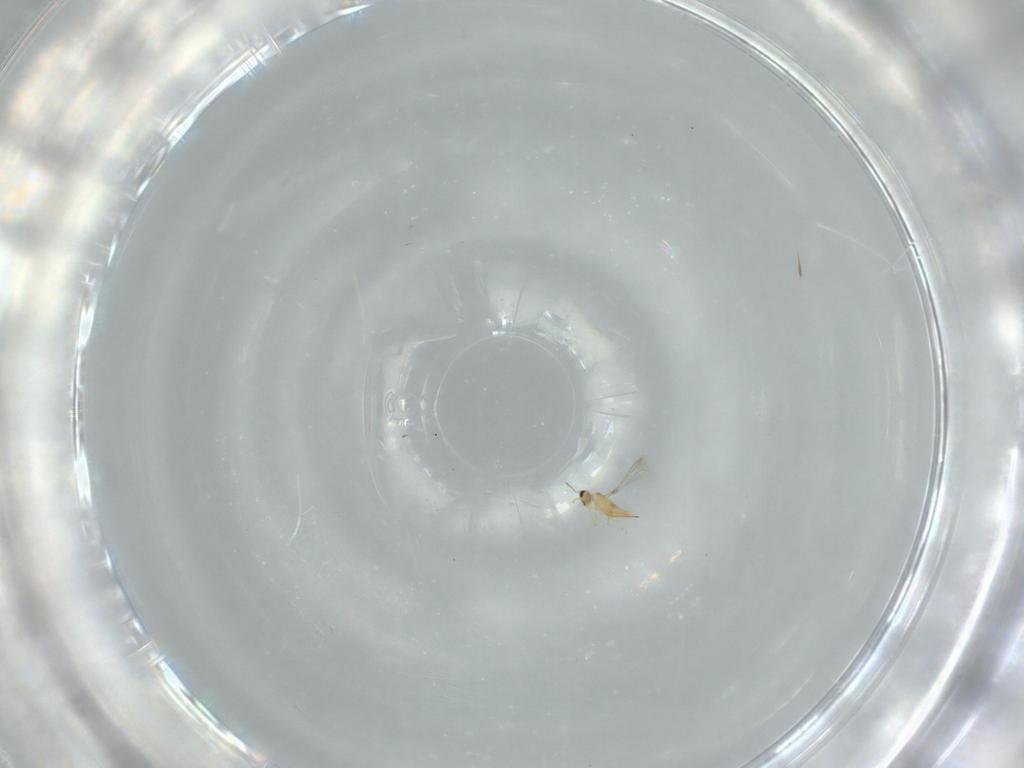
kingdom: Animalia
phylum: Arthropoda
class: Insecta
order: Hymenoptera
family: Mymaridae
